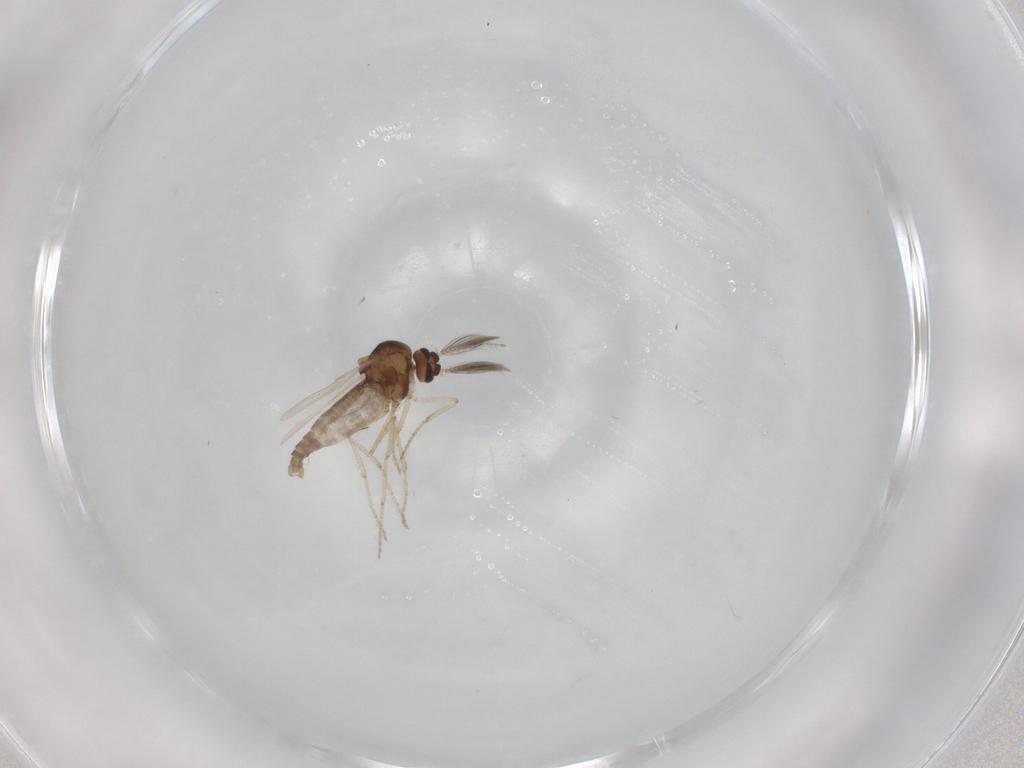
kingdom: Animalia
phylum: Arthropoda
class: Insecta
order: Diptera
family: Ceratopogonidae
